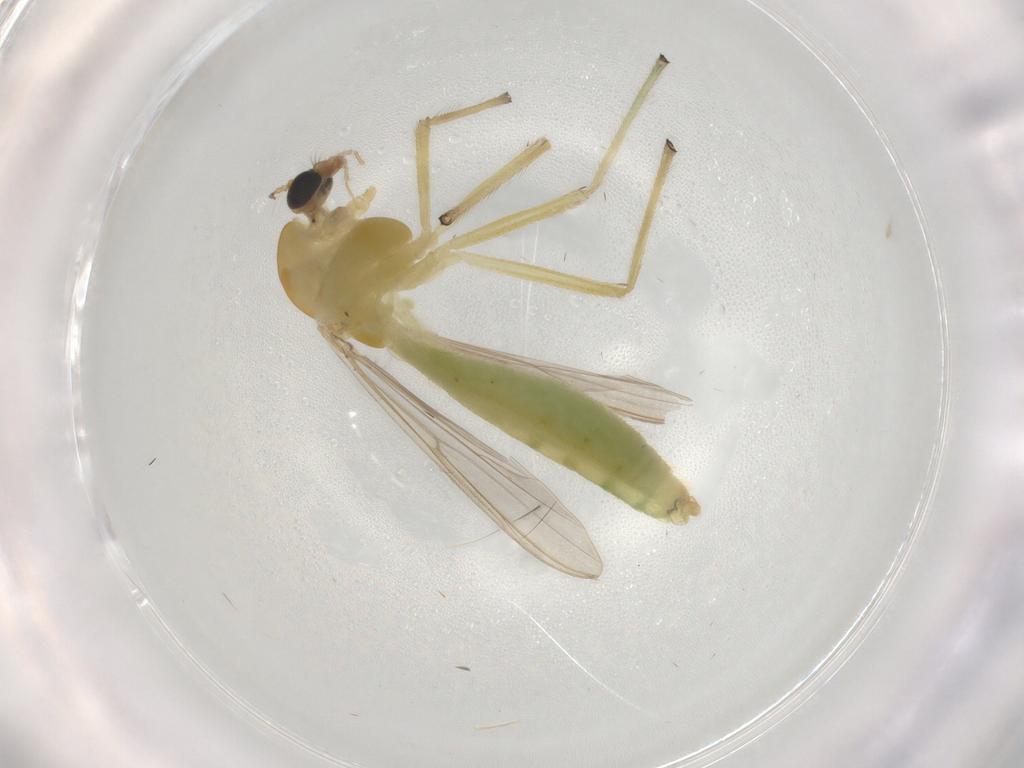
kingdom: Animalia
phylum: Arthropoda
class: Insecta
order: Diptera
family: Chironomidae
